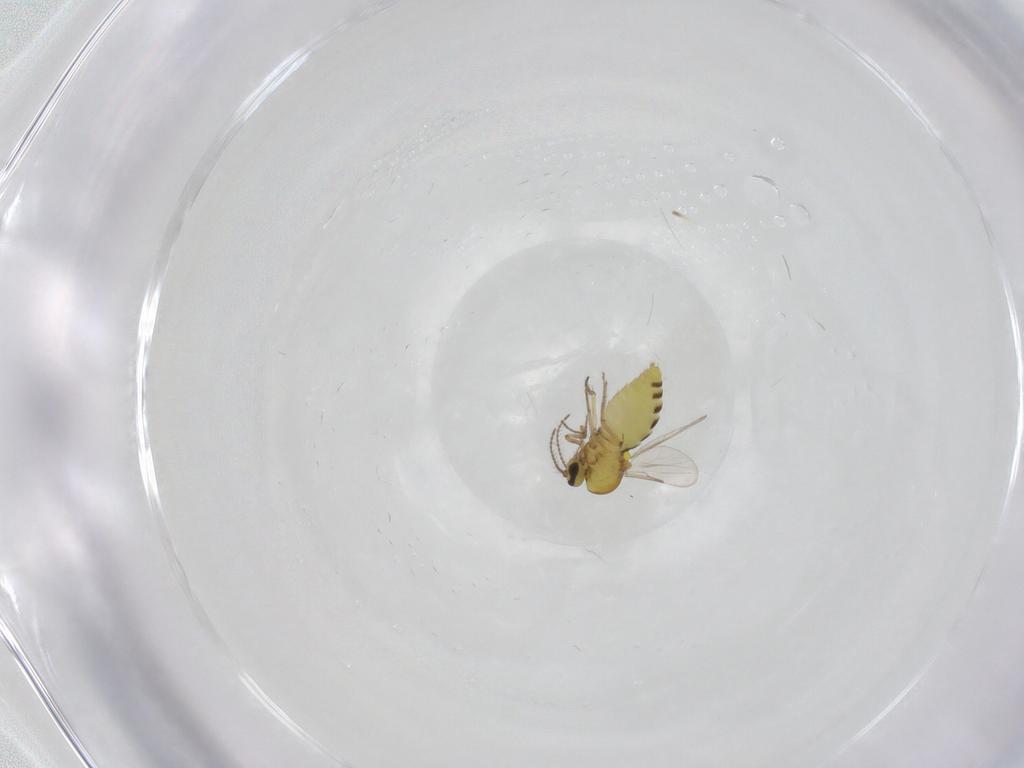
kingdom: Animalia
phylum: Arthropoda
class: Insecta
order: Diptera
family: Ceratopogonidae
